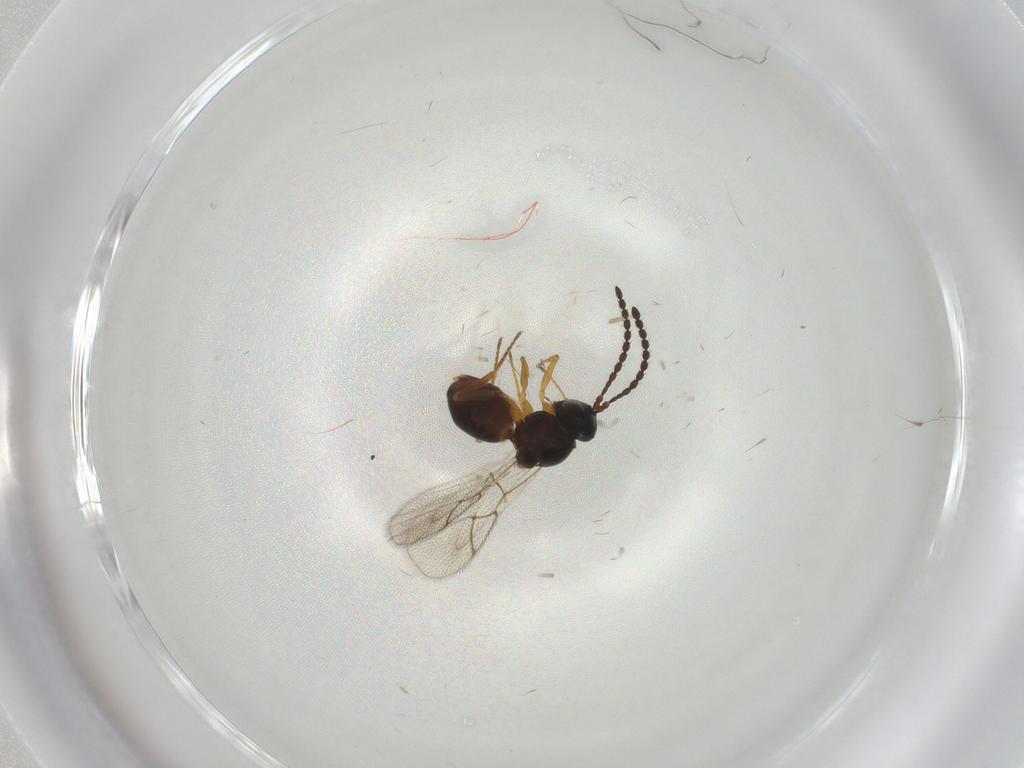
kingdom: Animalia
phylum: Arthropoda
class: Insecta
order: Hymenoptera
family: Figitidae
